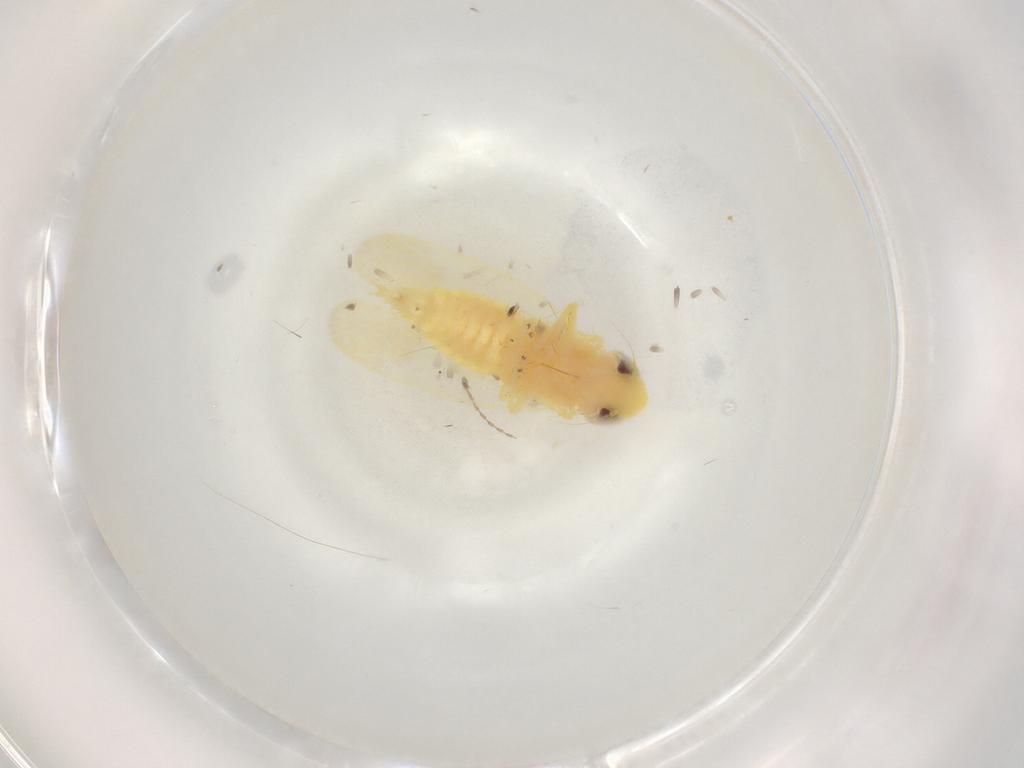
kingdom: Animalia
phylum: Arthropoda
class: Insecta
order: Hemiptera
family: Cicadellidae
